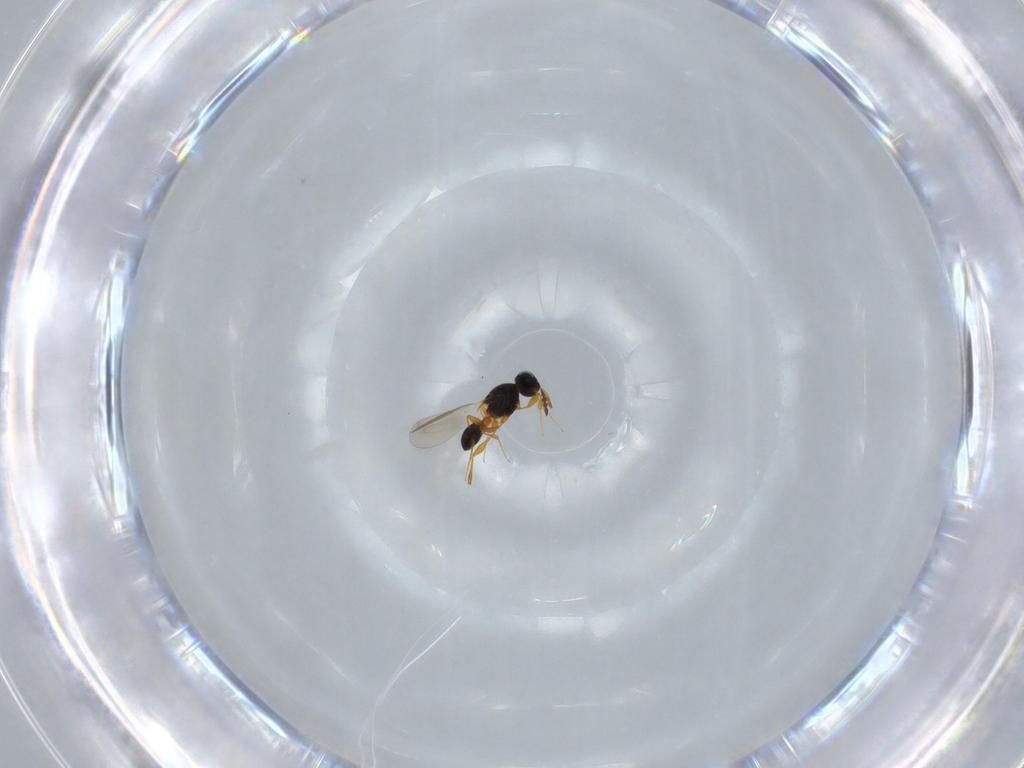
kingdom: Animalia
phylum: Arthropoda
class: Insecta
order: Hymenoptera
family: Platygastridae
